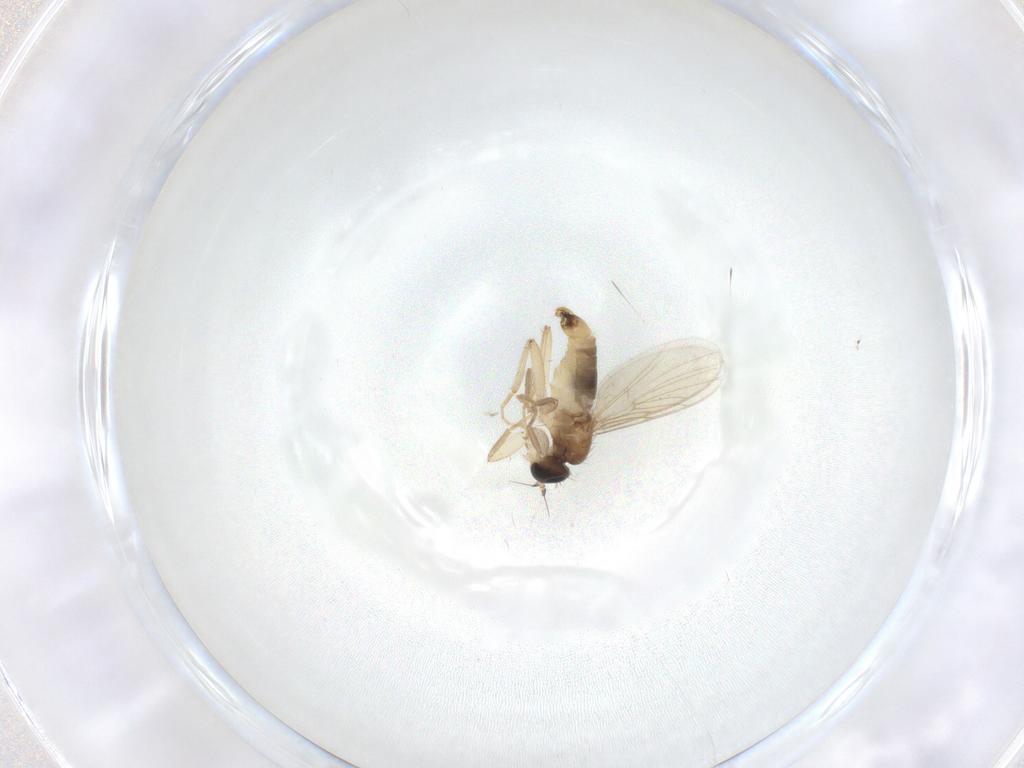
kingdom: Animalia
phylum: Arthropoda
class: Insecta
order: Diptera
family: Hybotidae
